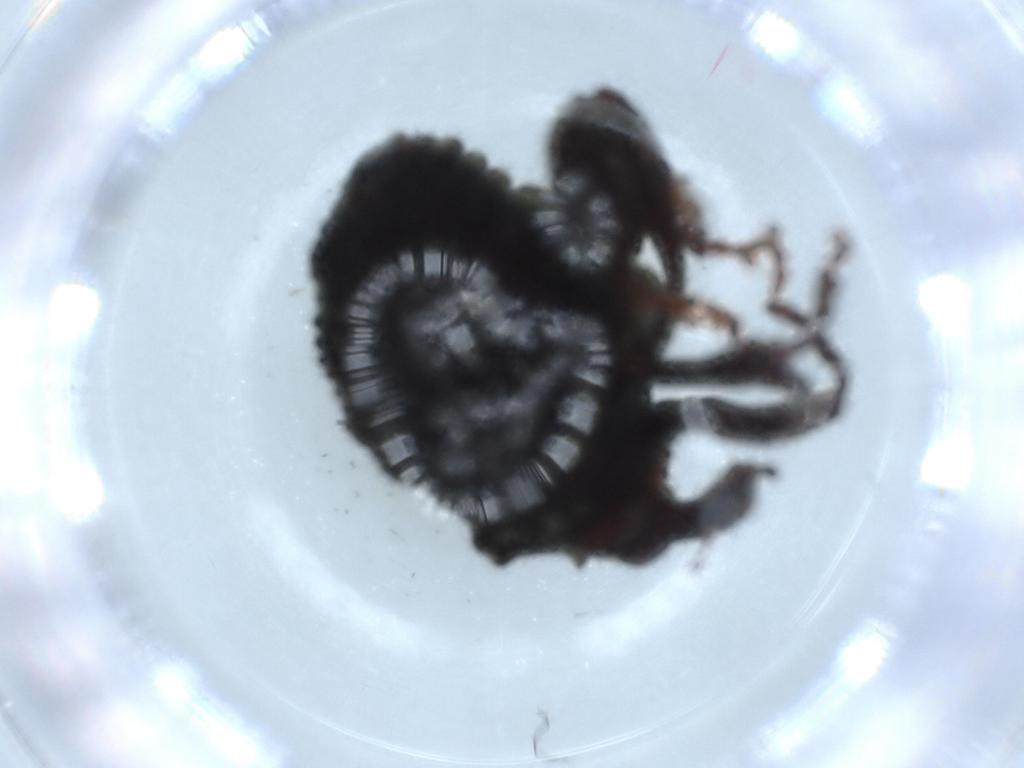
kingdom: Animalia
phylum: Arthropoda
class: Insecta
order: Coleoptera
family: Curculionidae
